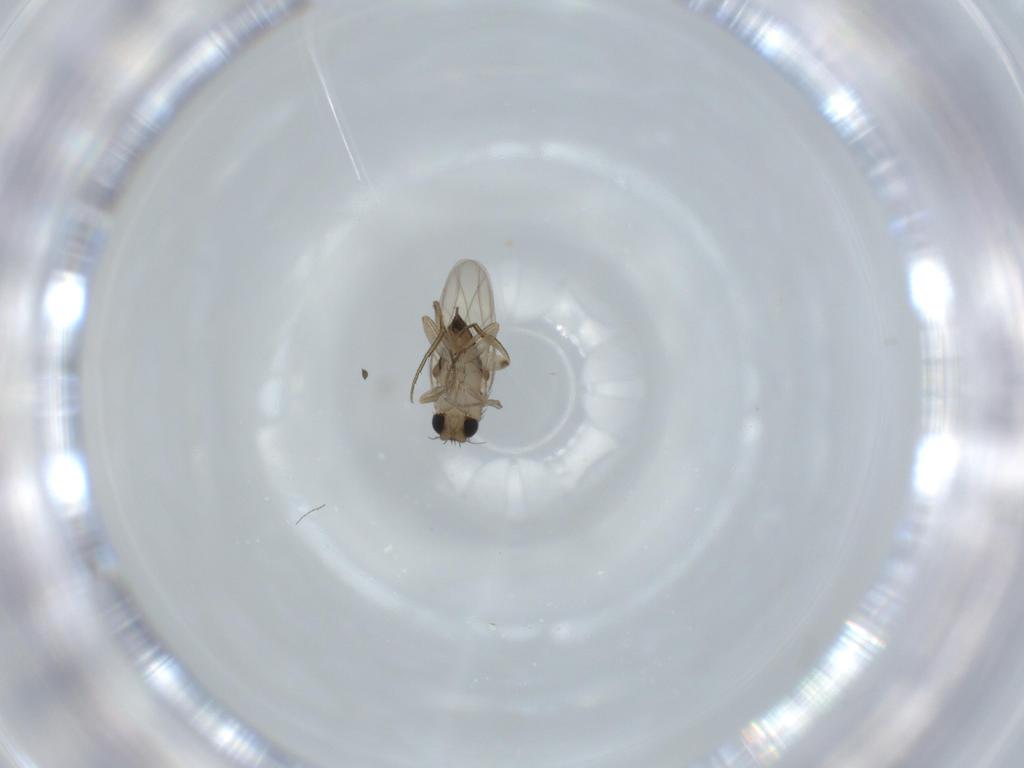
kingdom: Animalia
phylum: Arthropoda
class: Insecta
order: Diptera
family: Phoridae
